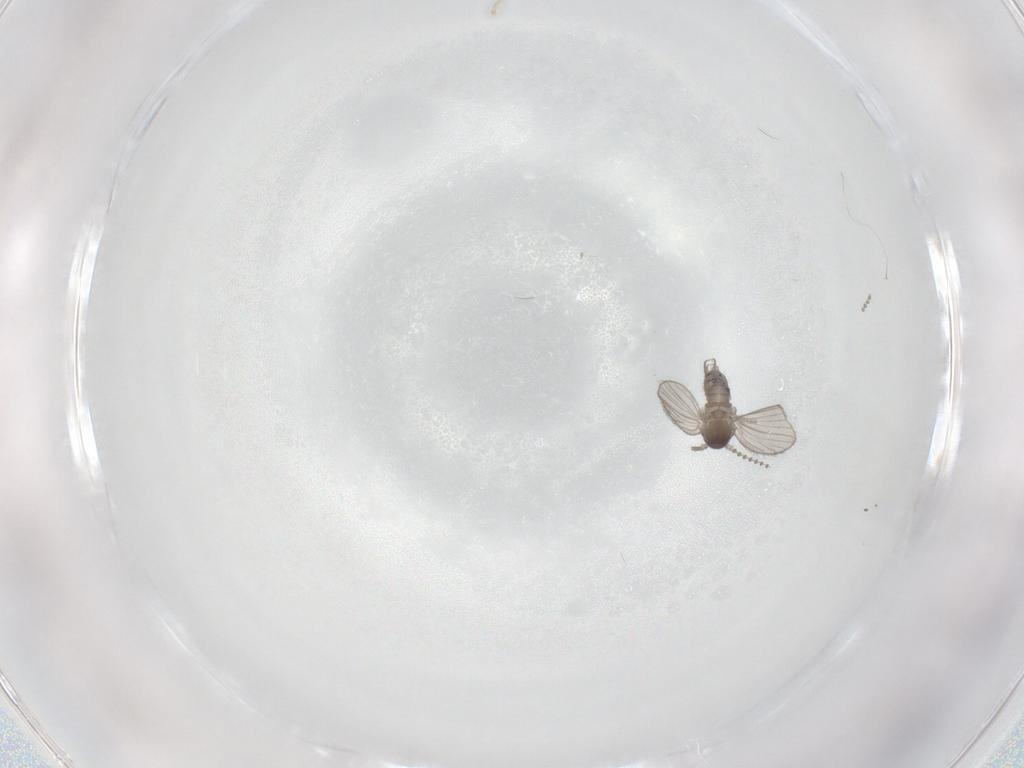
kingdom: Animalia
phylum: Arthropoda
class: Insecta
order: Diptera
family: Psychodidae
